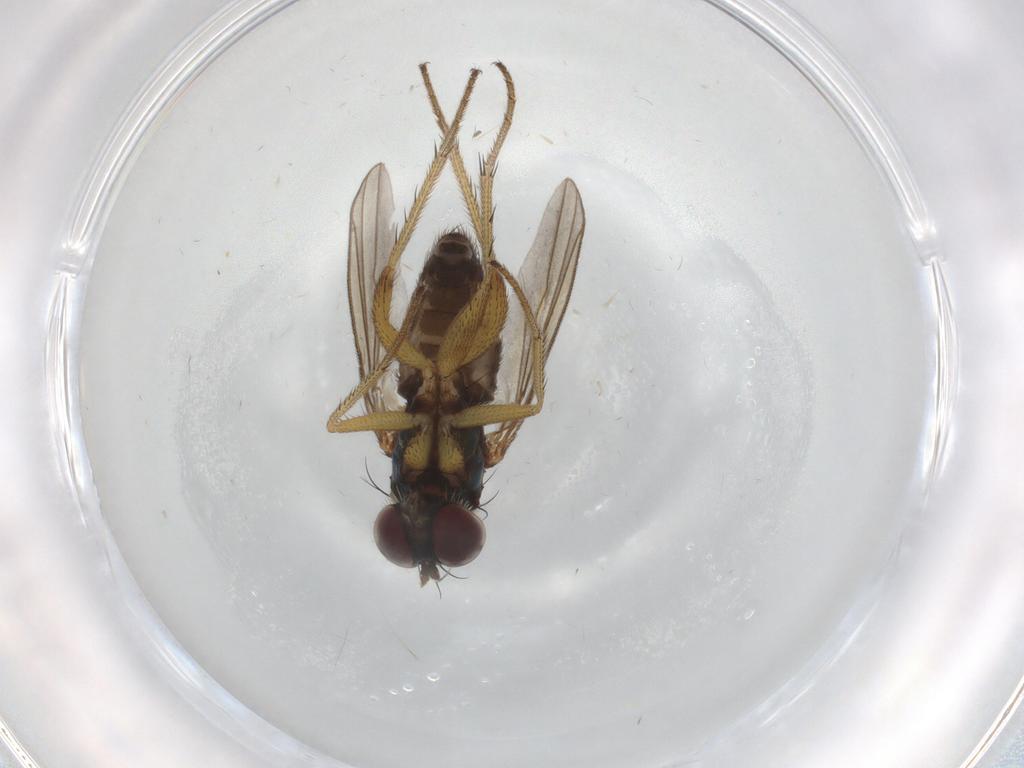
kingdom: Animalia
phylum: Arthropoda
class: Insecta
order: Diptera
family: Dolichopodidae
